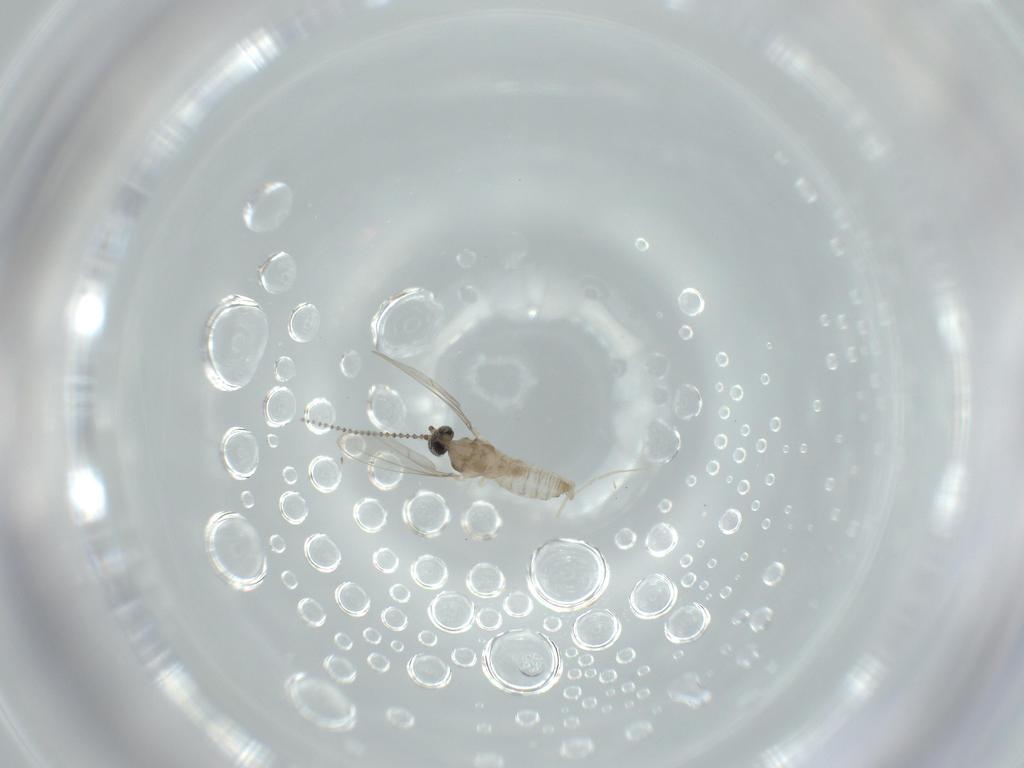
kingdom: Animalia
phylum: Arthropoda
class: Insecta
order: Diptera
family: Cecidomyiidae
